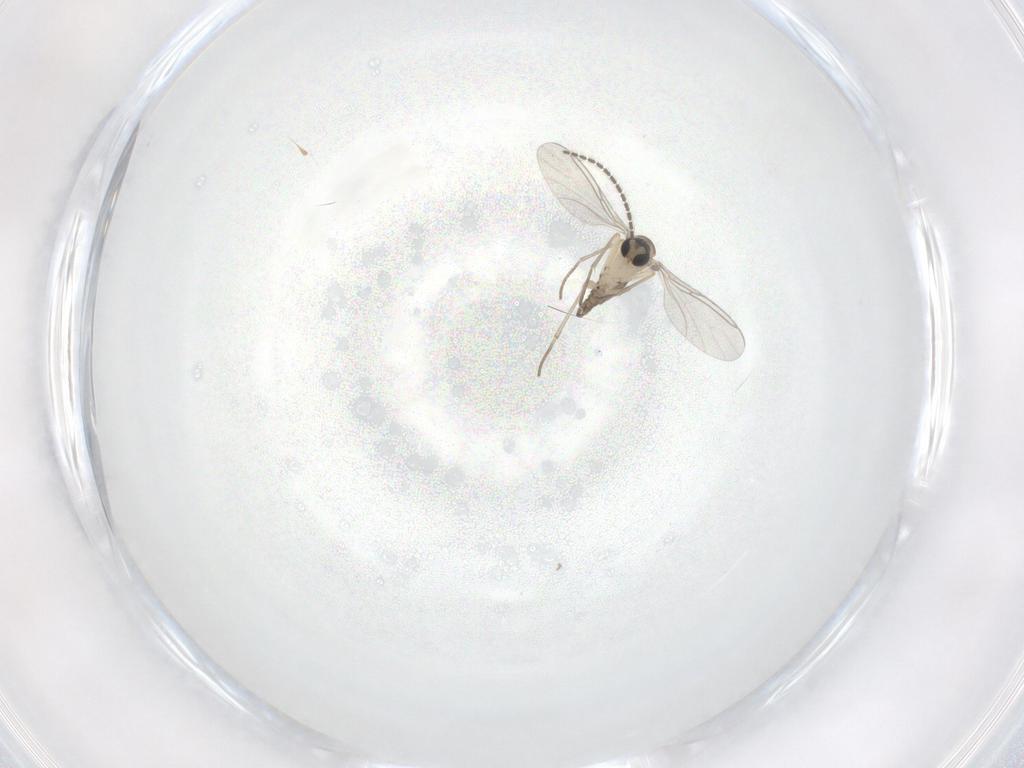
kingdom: Animalia
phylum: Arthropoda
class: Insecta
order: Diptera
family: Sciaridae
